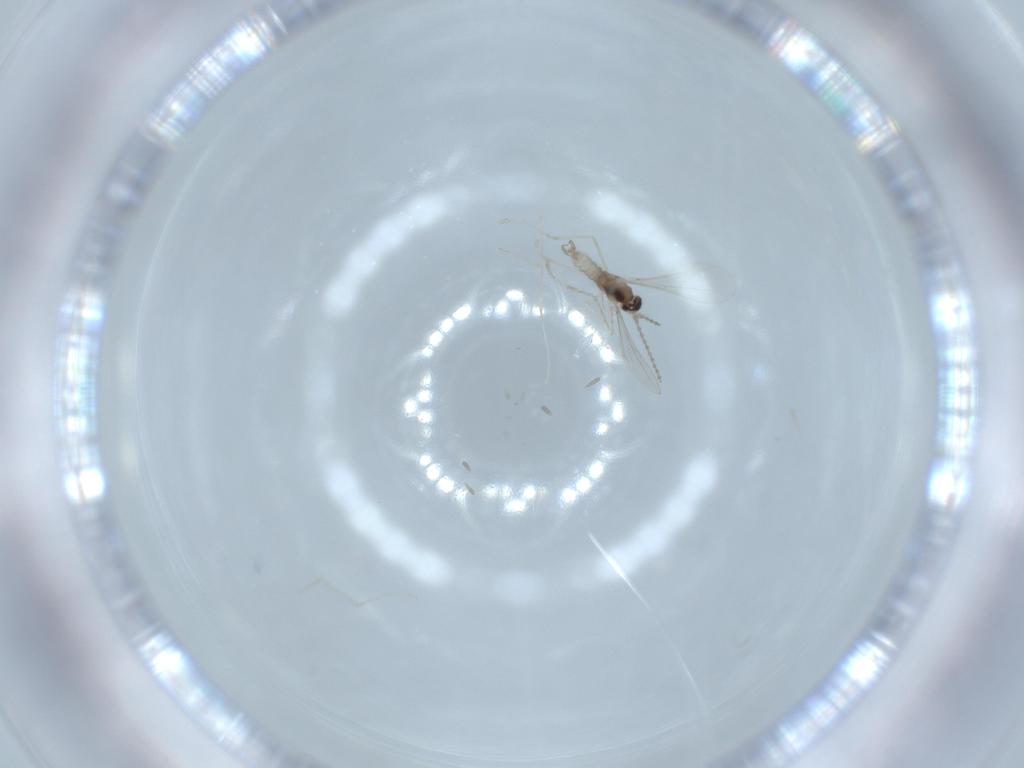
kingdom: Animalia
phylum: Arthropoda
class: Insecta
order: Diptera
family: Cecidomyiidae
